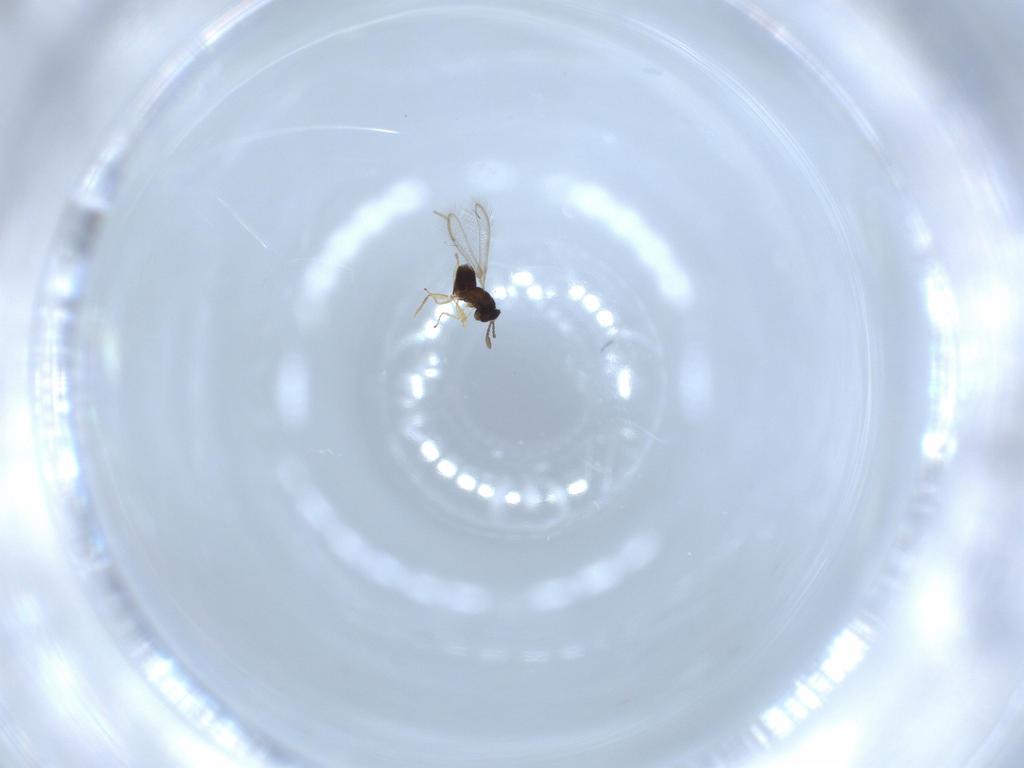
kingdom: Animalia
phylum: Arthropoda
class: Insecta
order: Hymenoptera
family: Mymaridae
